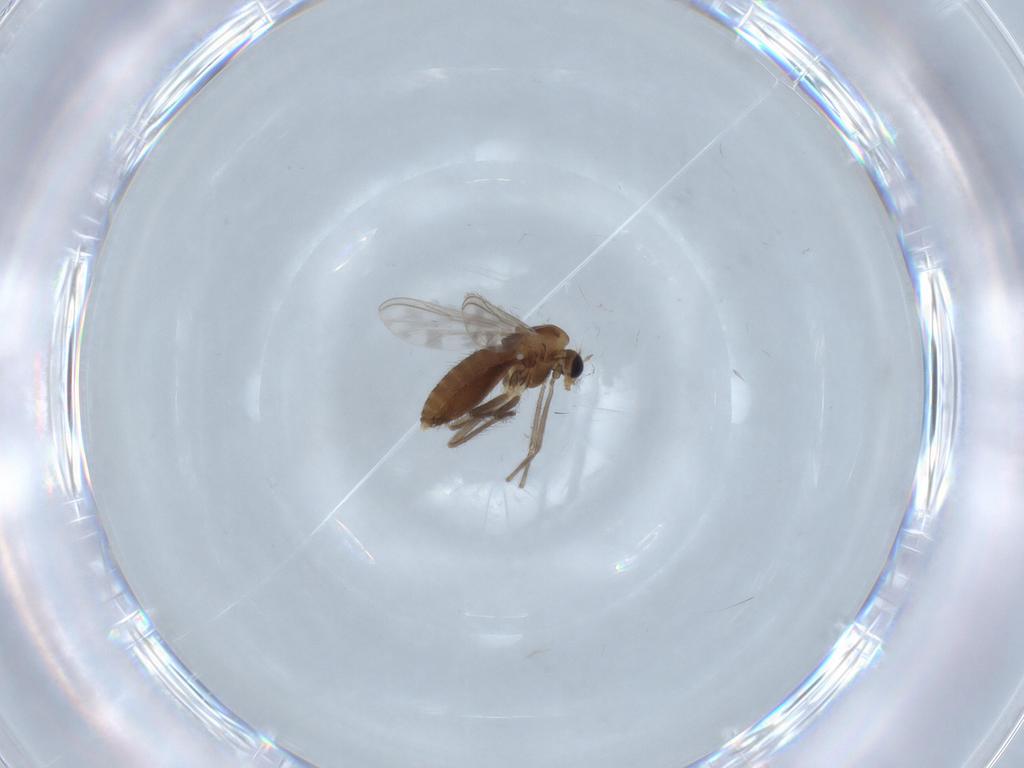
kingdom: Animalia
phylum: Arthropoda
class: Insecta
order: Diptera
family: Chironomidae
